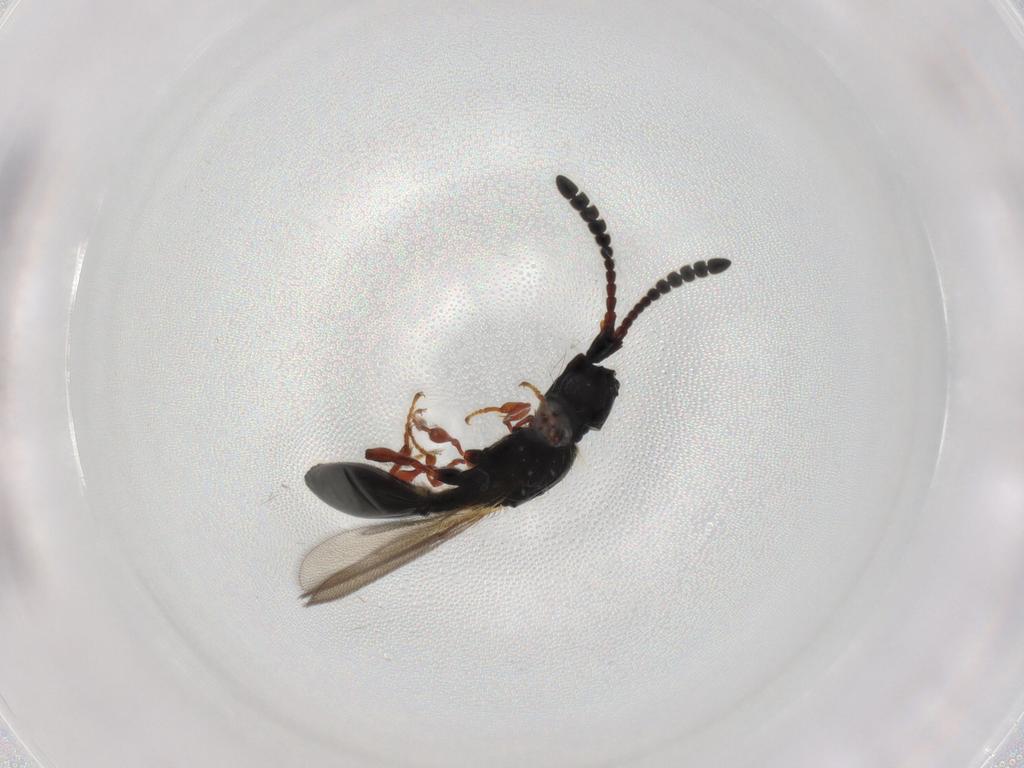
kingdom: Animalia
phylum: Arthropoda
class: Insecta
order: Hymenoptera
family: Diapriidae
